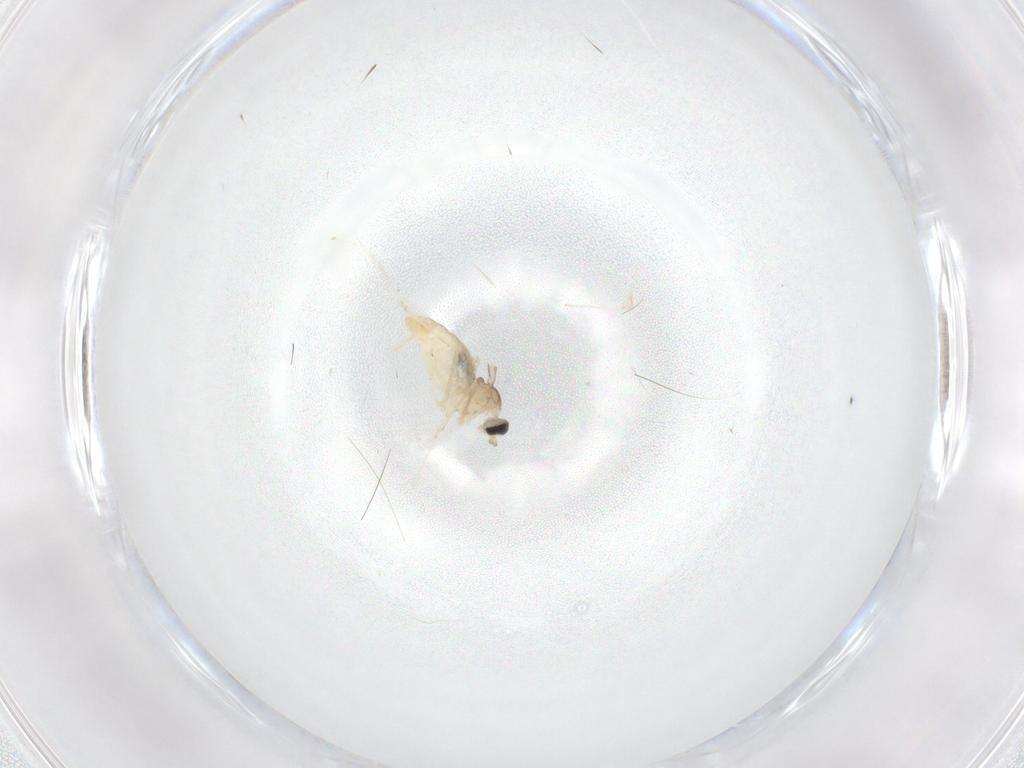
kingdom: Animalia
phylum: Arthropoda
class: Insecta
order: Diptera
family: Cecidomyiidae
